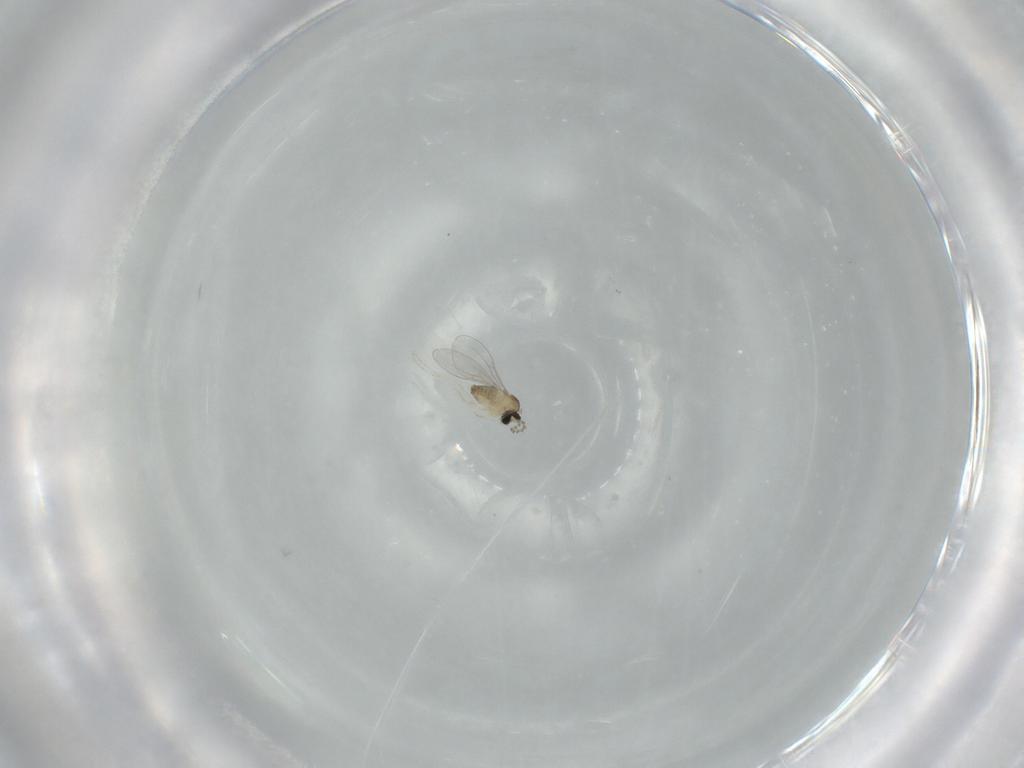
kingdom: Animalia
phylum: Arthropoda
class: Insecta
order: Diptera
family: Cecidomyiidae
